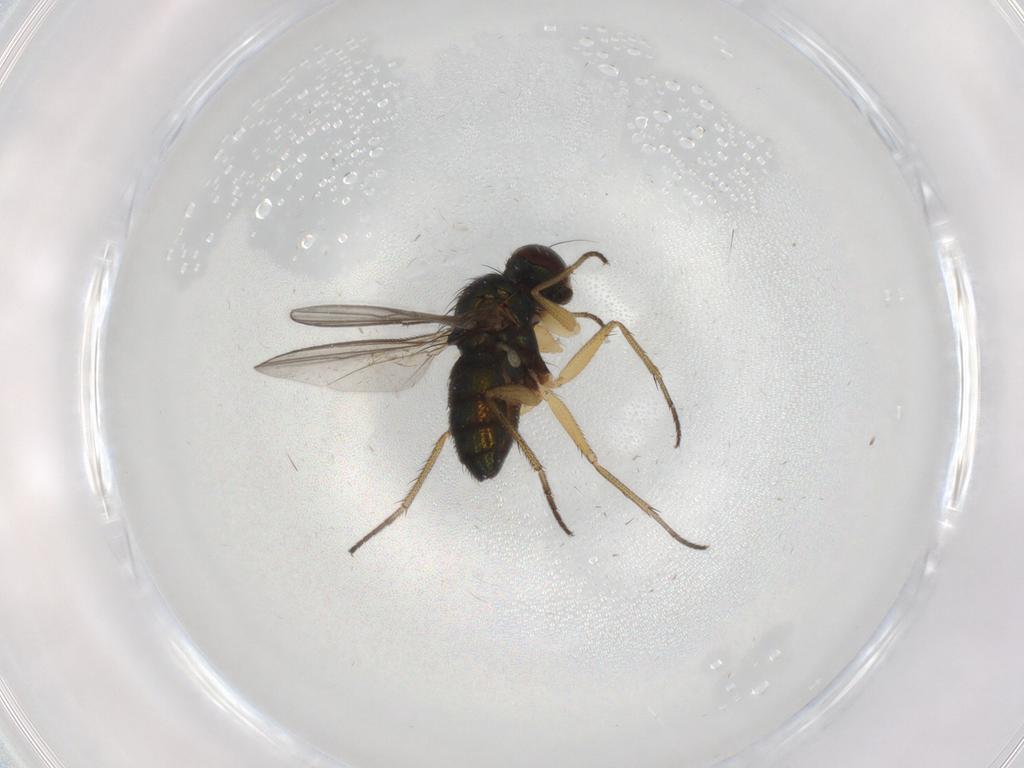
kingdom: Animalia
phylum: Arthropoda
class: Insecta
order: Diptera
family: Dolichopodidae
